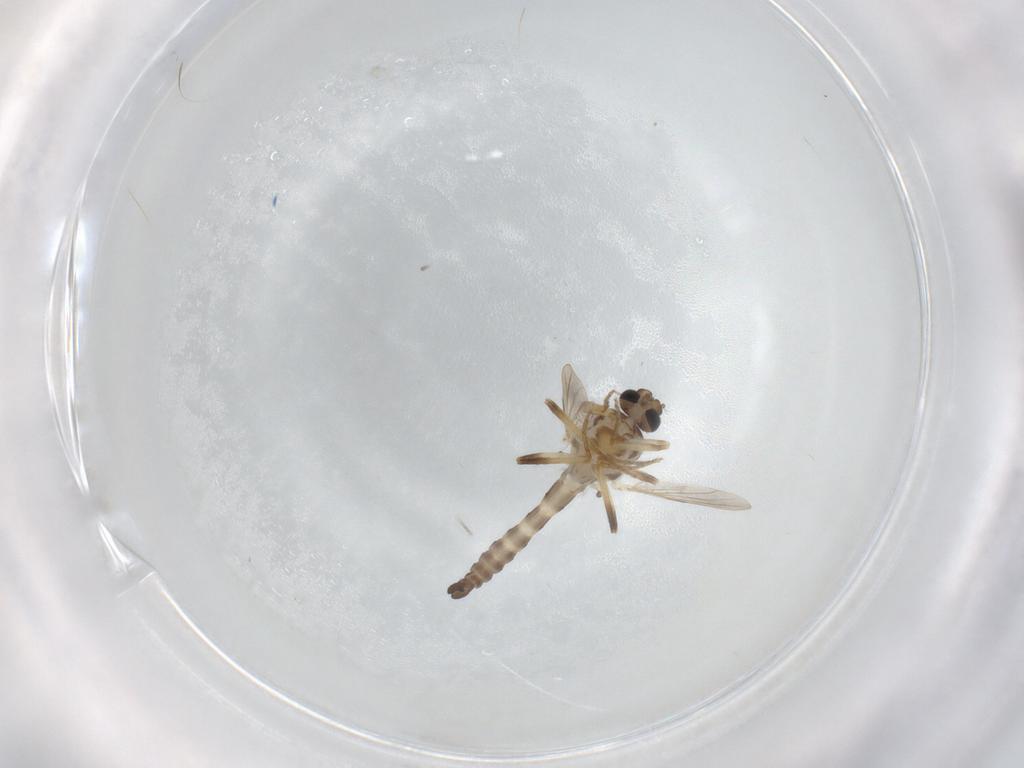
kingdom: Animalia
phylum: Arthropoda
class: Insecta
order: Diptera
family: Ceratopogonidae
